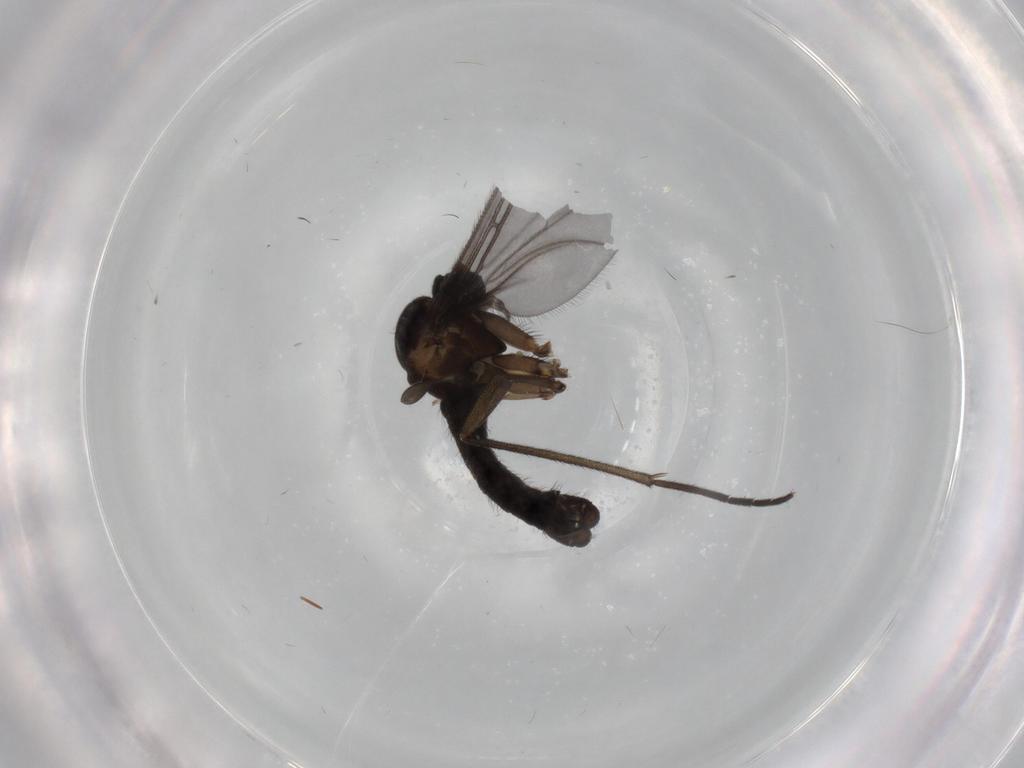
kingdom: Animalia
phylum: Arthropoda
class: Insecta
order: Diptera
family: Sciaridae
